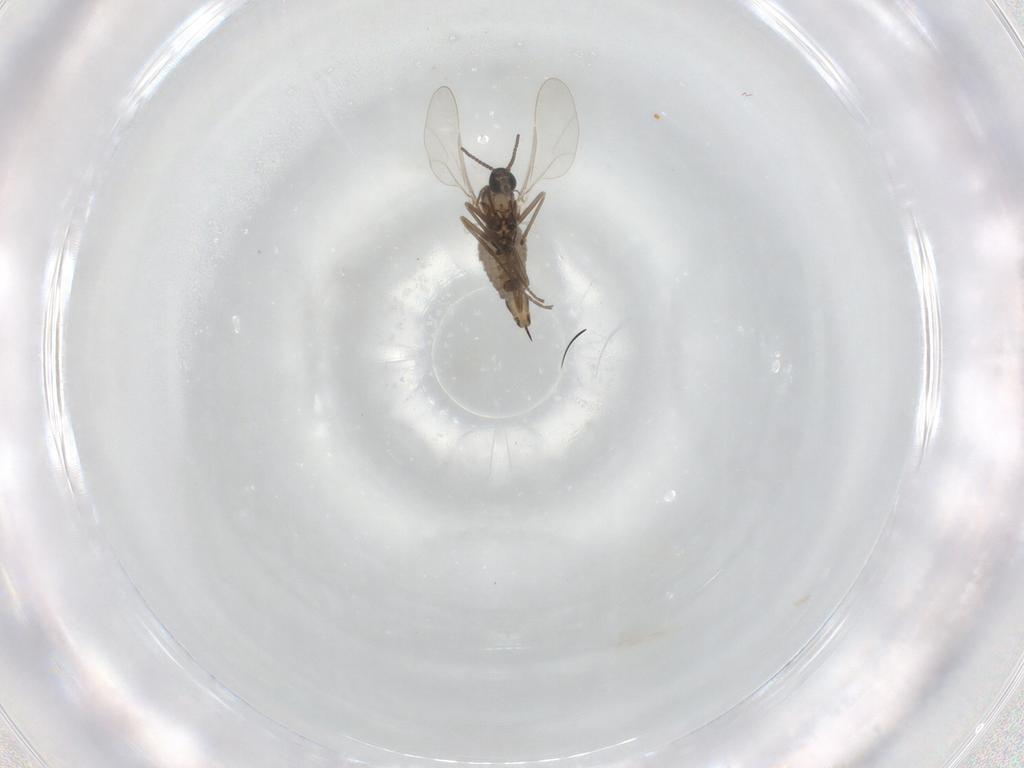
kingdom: Animalia
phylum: Arthropoda
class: Insecta
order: Diptera
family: Cecidomyiidae
